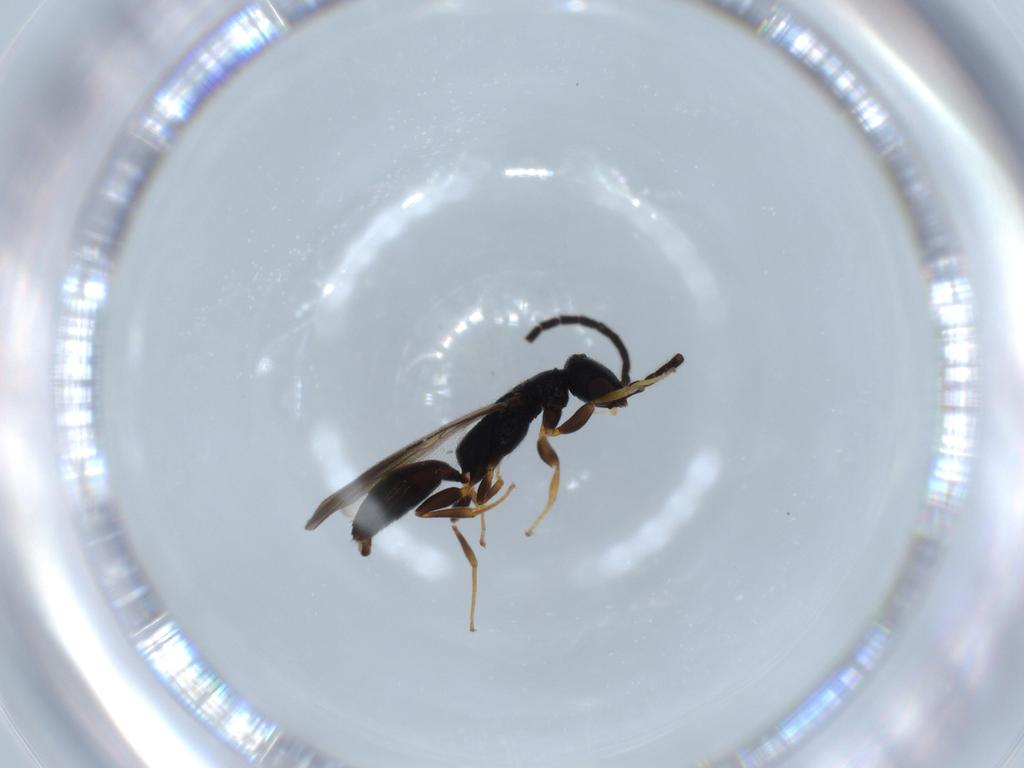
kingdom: Animalia
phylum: Arthropoda
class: Insecta
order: Hymenoptera
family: Bethylidae
